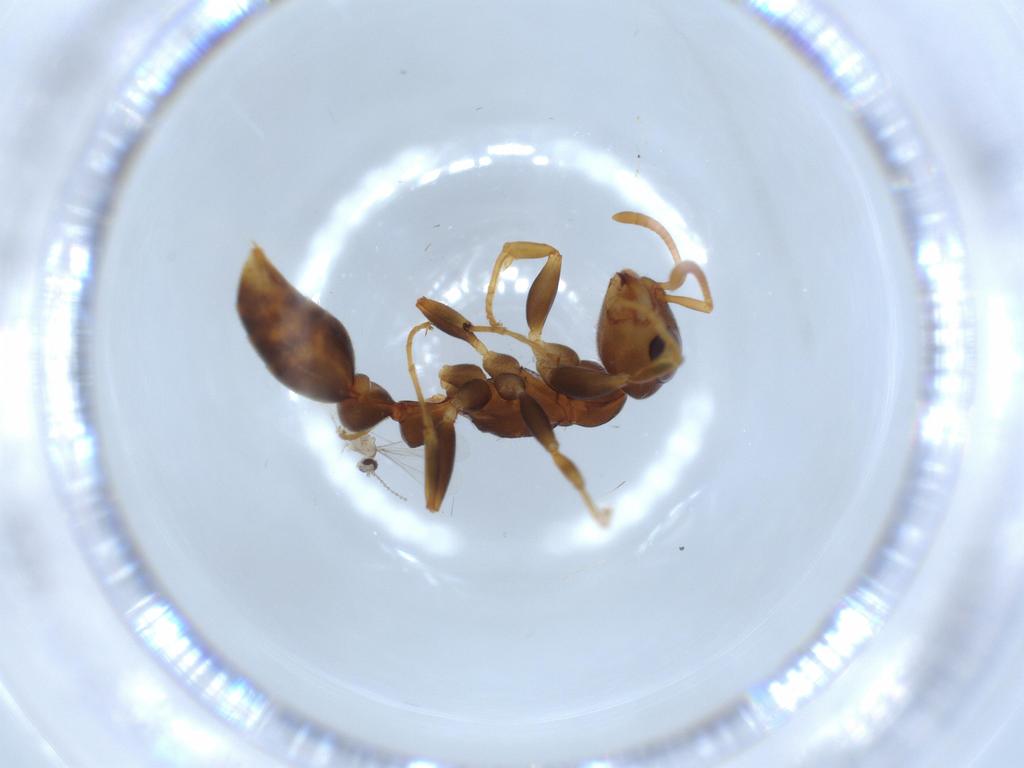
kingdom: Animalia
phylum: Arthropoda
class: Insecta
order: Hymenoptera
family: Formicidae
